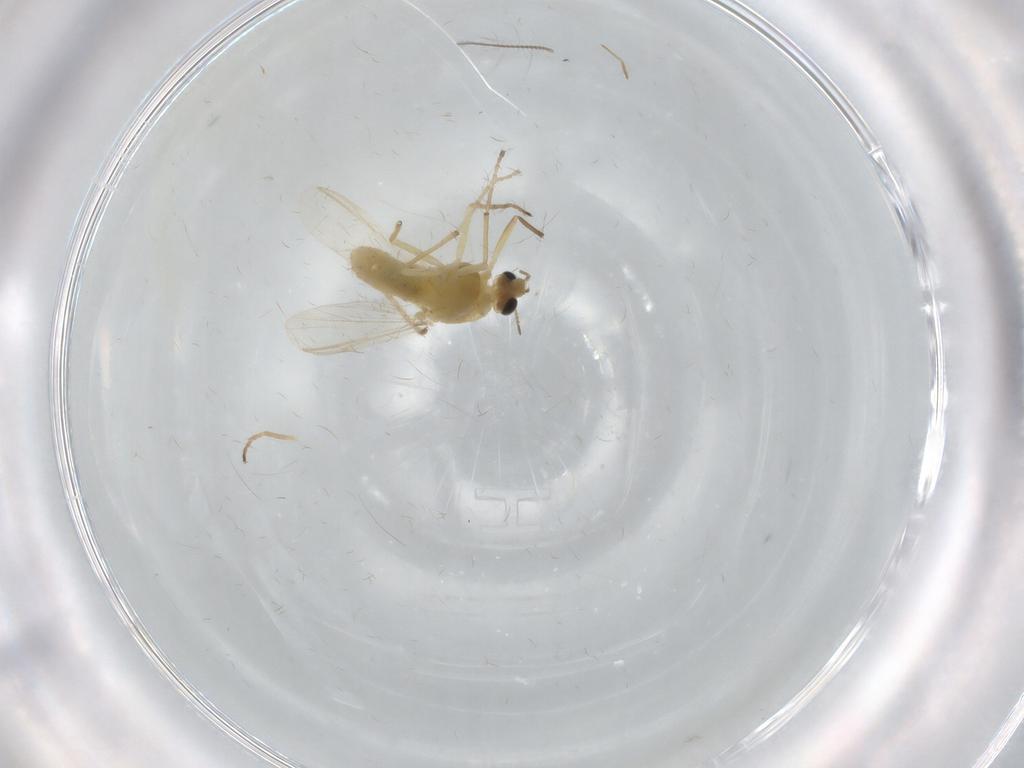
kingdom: Animalia
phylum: Arthropoda
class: Insecta
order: Diptera
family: Chironomidae
